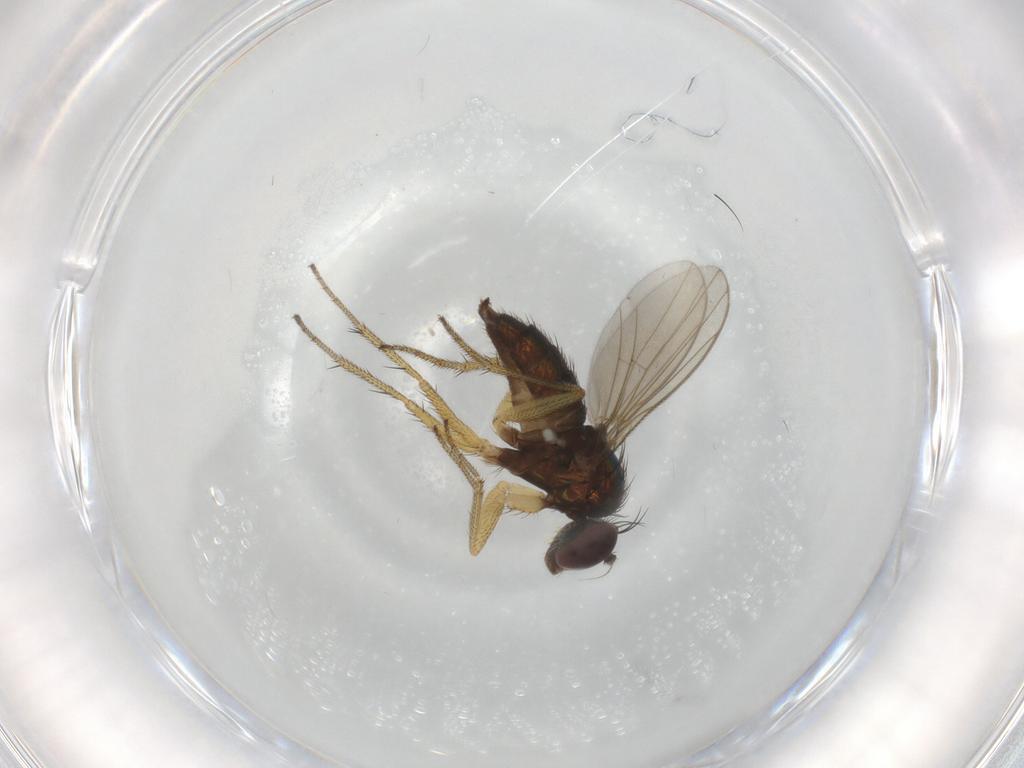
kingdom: Animalia
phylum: Arthropoda
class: Insecta
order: Diptera
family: Dolichopodidae
